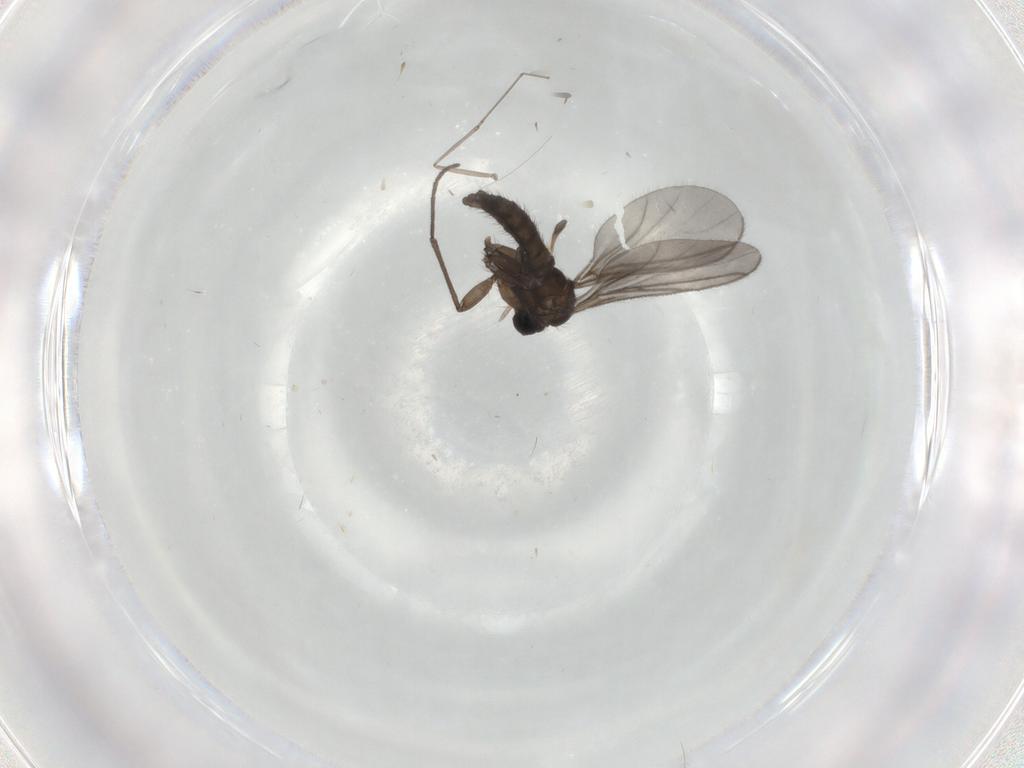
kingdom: Animalia
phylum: Arthropoda
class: Insecta
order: Diptera
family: Sciaridae
